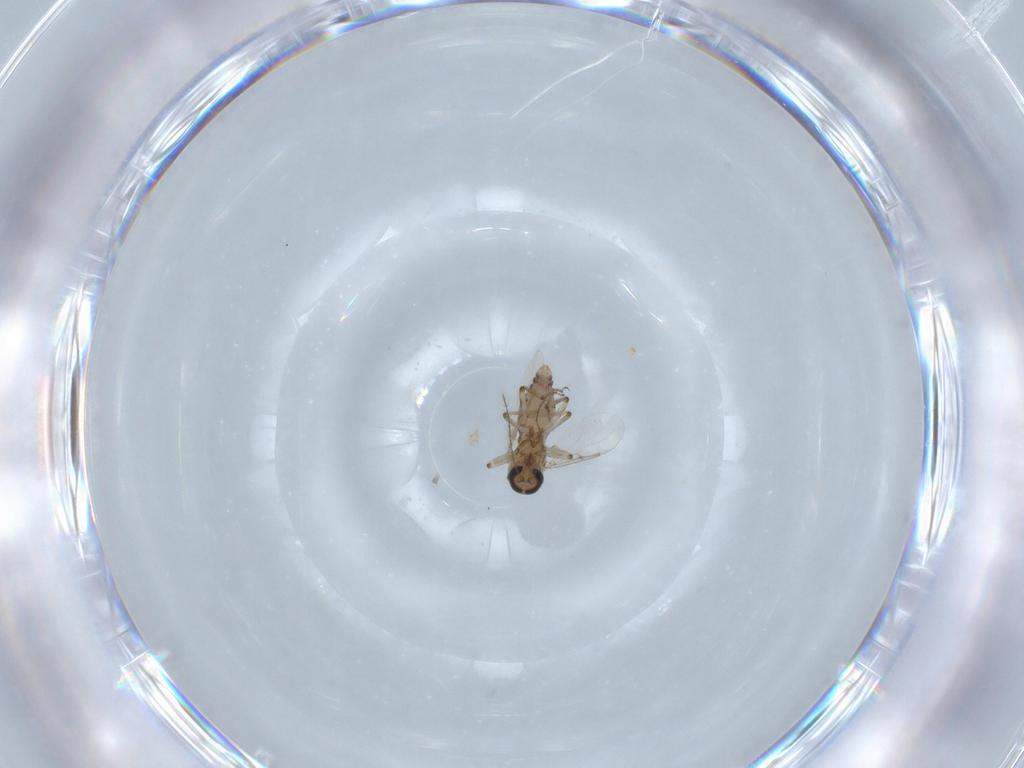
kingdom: Animalia
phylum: Arthropoda
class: Insecta
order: Diptera
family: Ceratopogonidae
